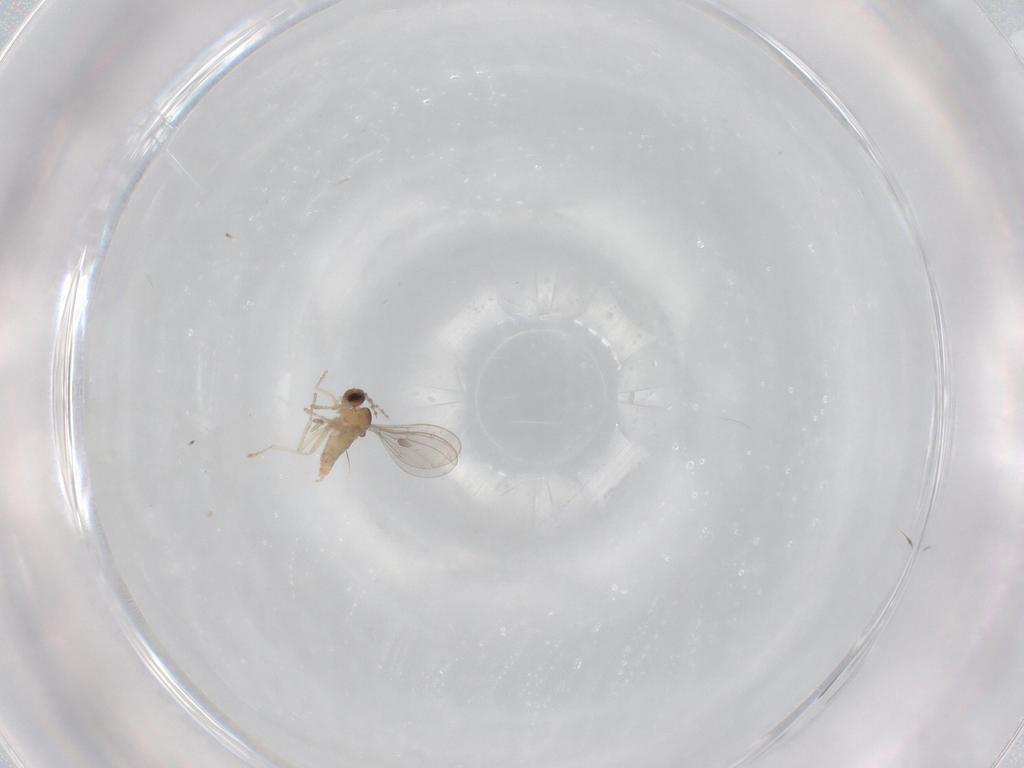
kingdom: Animalia
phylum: Arthropoda
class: Insecta
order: Diptera
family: Cecidomyiidae
